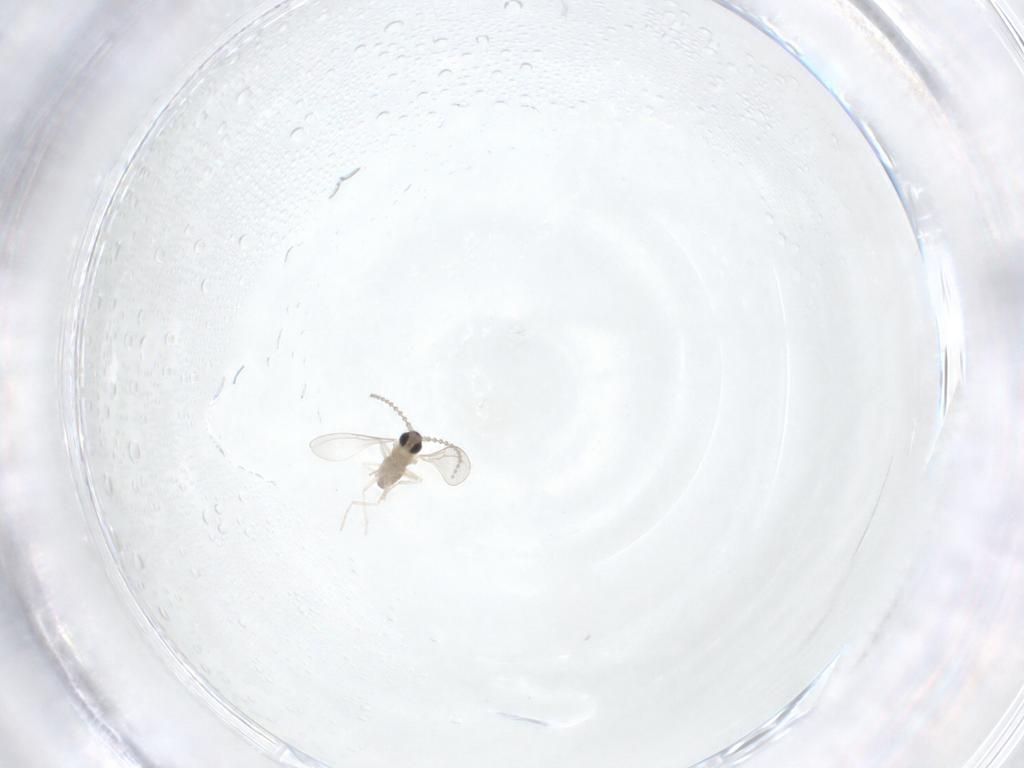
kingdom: Animalia
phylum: Arthropoda
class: Insecta
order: Diptera
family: Cecidomyiidae
